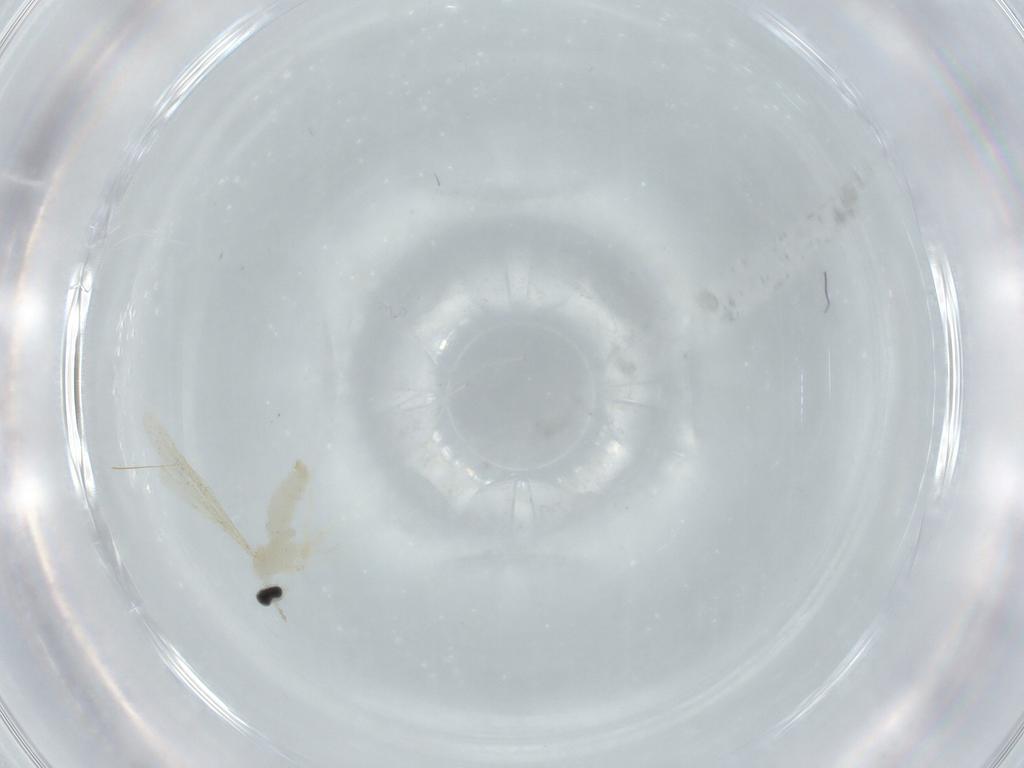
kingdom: Animalia
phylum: Arthropoda
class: Insecta
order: Diptera
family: Cecidomyiidae
